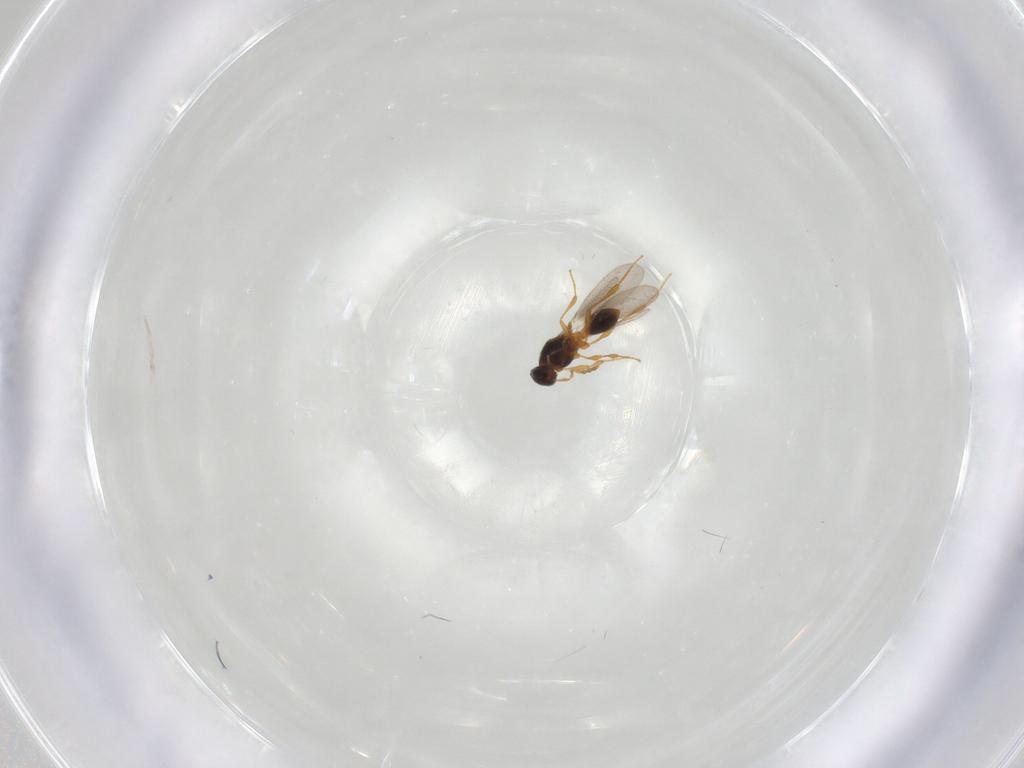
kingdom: Animalia
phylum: Arthropoda
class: Insecta
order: Hymenoptera
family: Platygastridae
